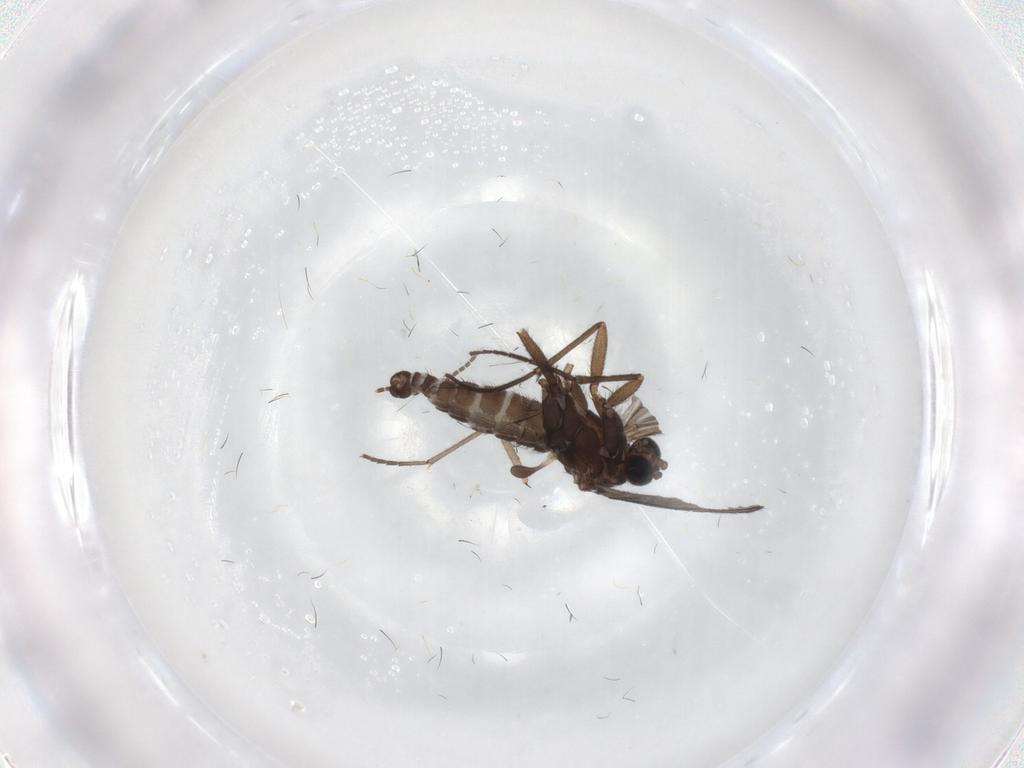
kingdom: Animalia
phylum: Arthropoda
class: Insecta
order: Diptera
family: Sciaridae
